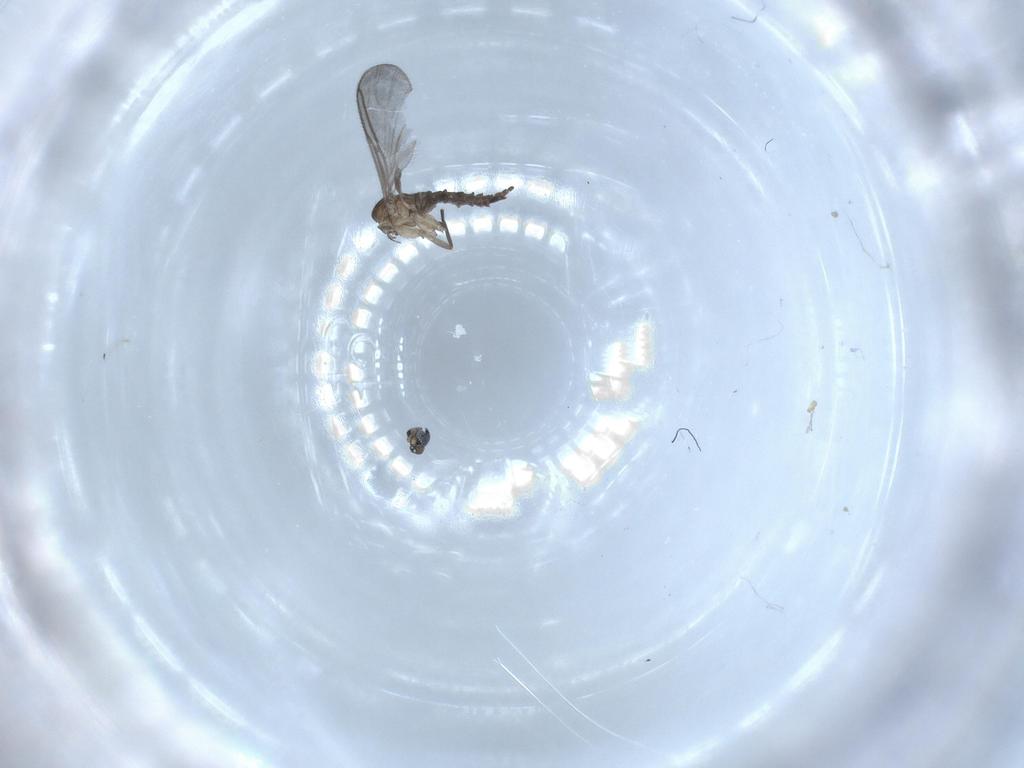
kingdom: Animalia
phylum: Arthropoda
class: Insecta
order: Diptera
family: Sciaridae
